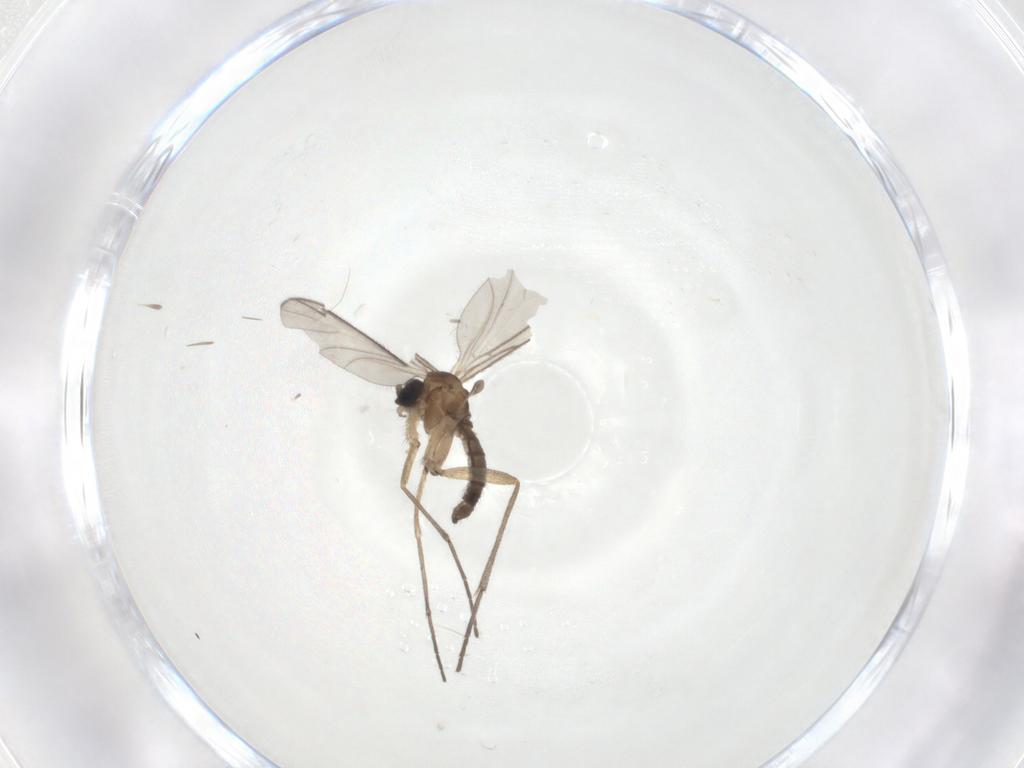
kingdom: Animalia
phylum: Arthropoda
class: Insecta
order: Diptera
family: Sciaridae
